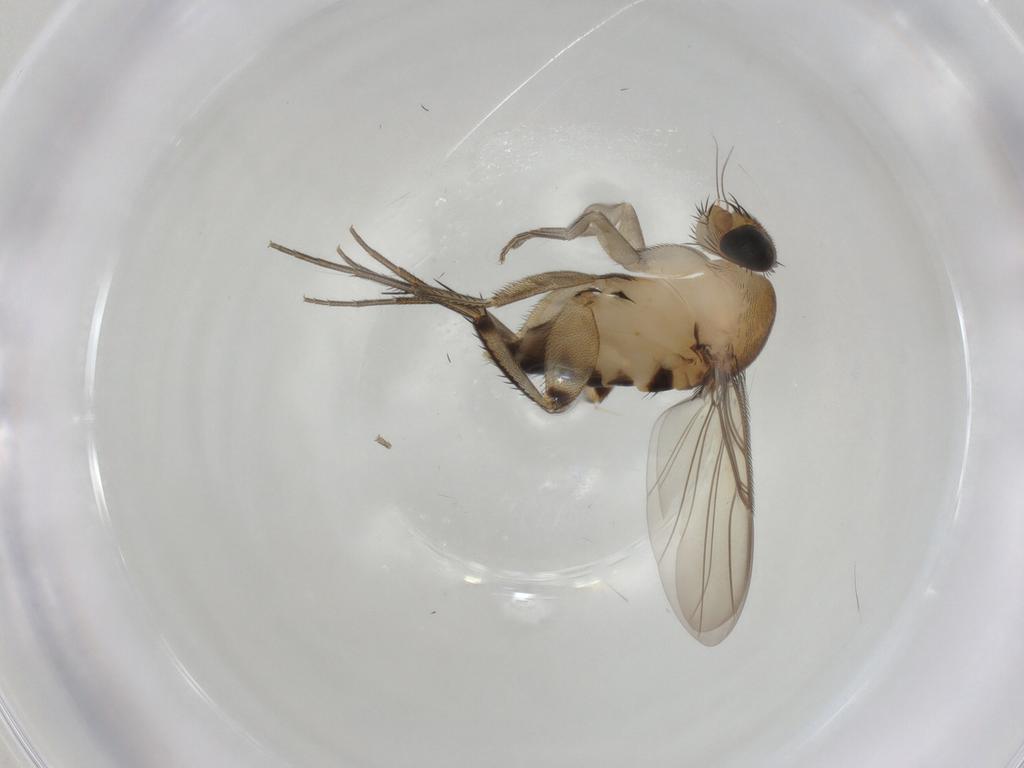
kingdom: Animalia
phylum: Arthropoda
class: Insecta
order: Diptera
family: Phoridae
